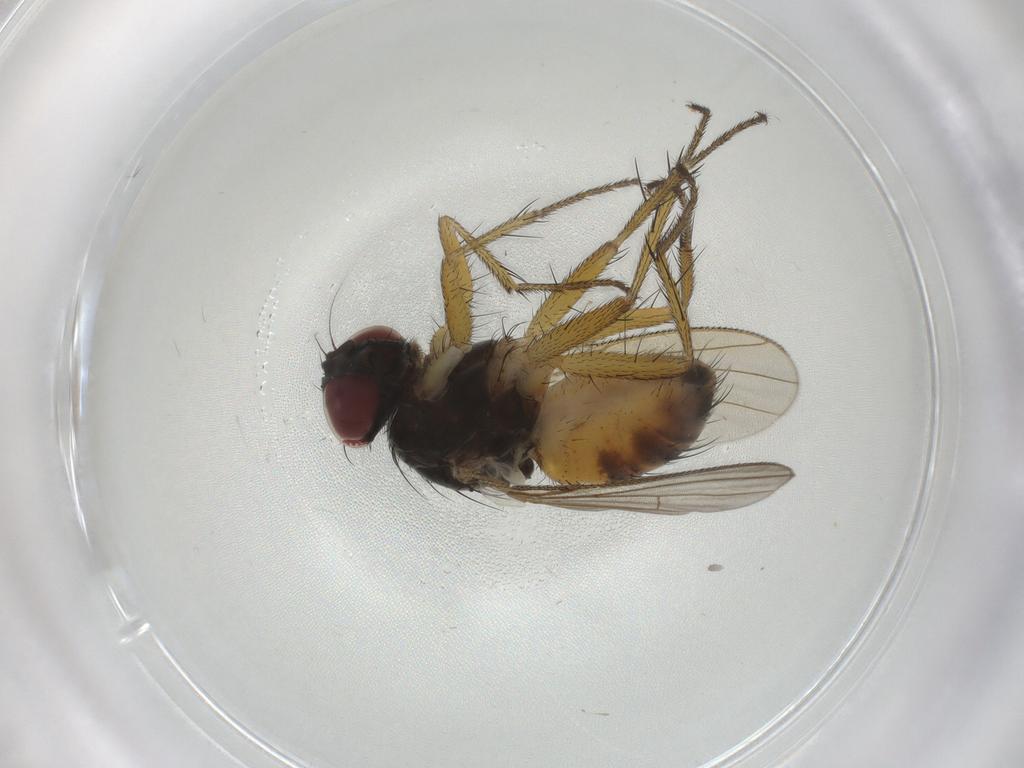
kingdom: Animalia
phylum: Arthropoda
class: Insecta
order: Diptera
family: Muscidae
